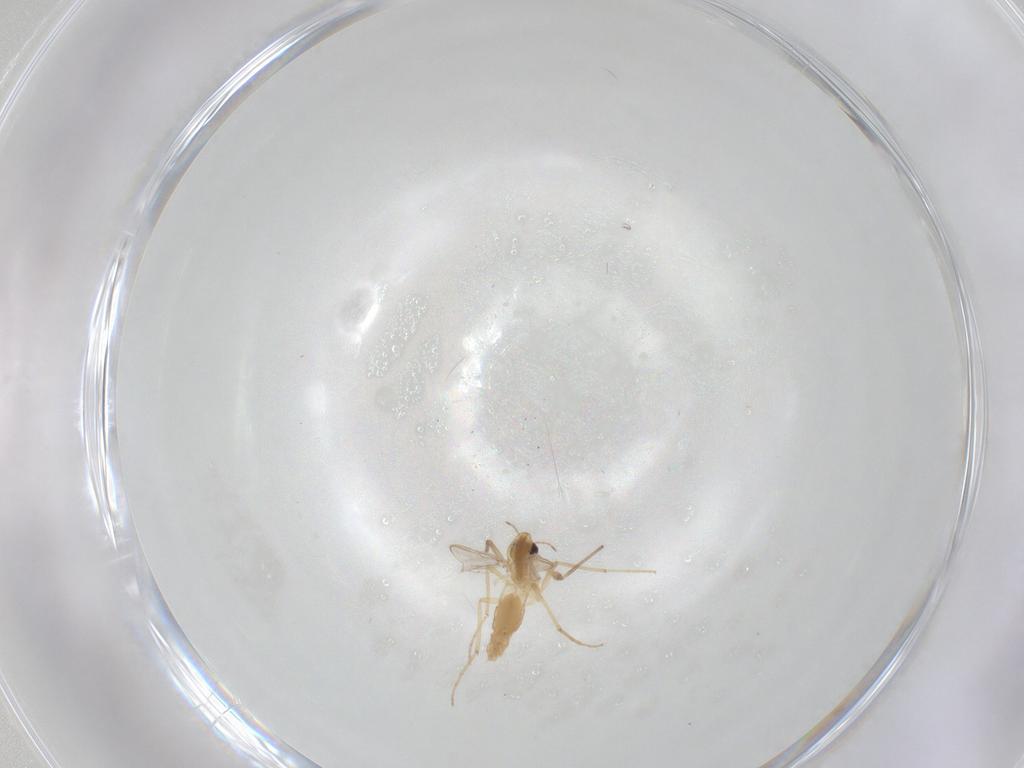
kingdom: Animalia
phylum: Arthropoda
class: Insecta
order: Diptera
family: Chironomidae
